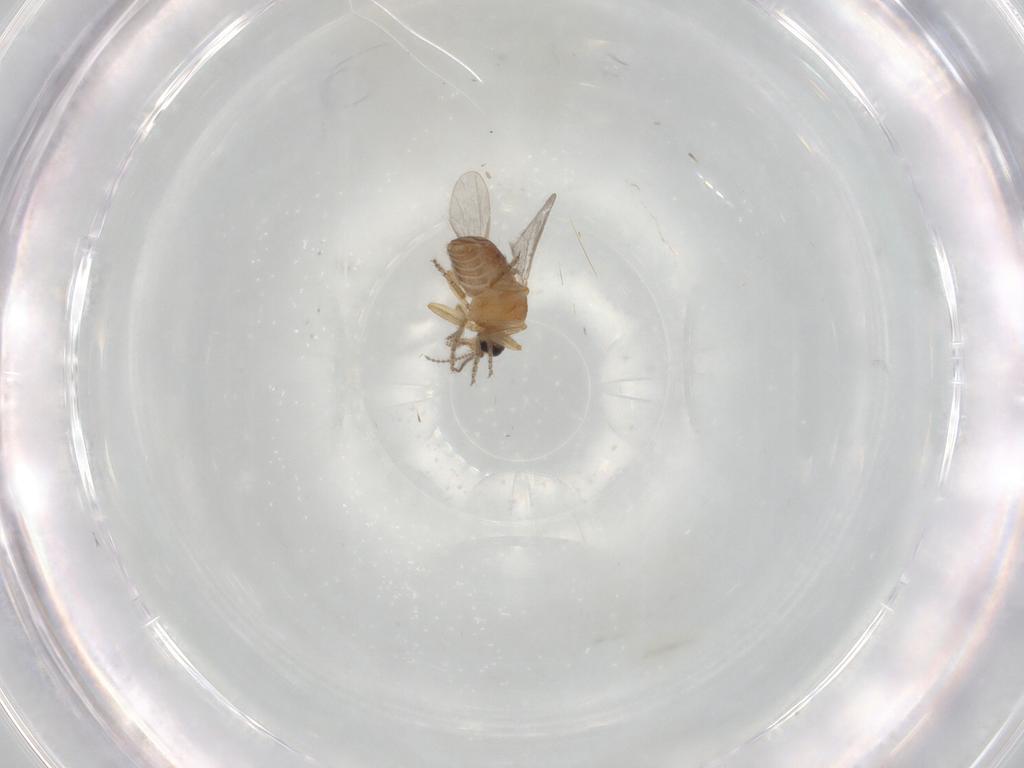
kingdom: Animalia
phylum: Arthropoda
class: Insecta
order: Diptera
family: Ceratopogonidae
